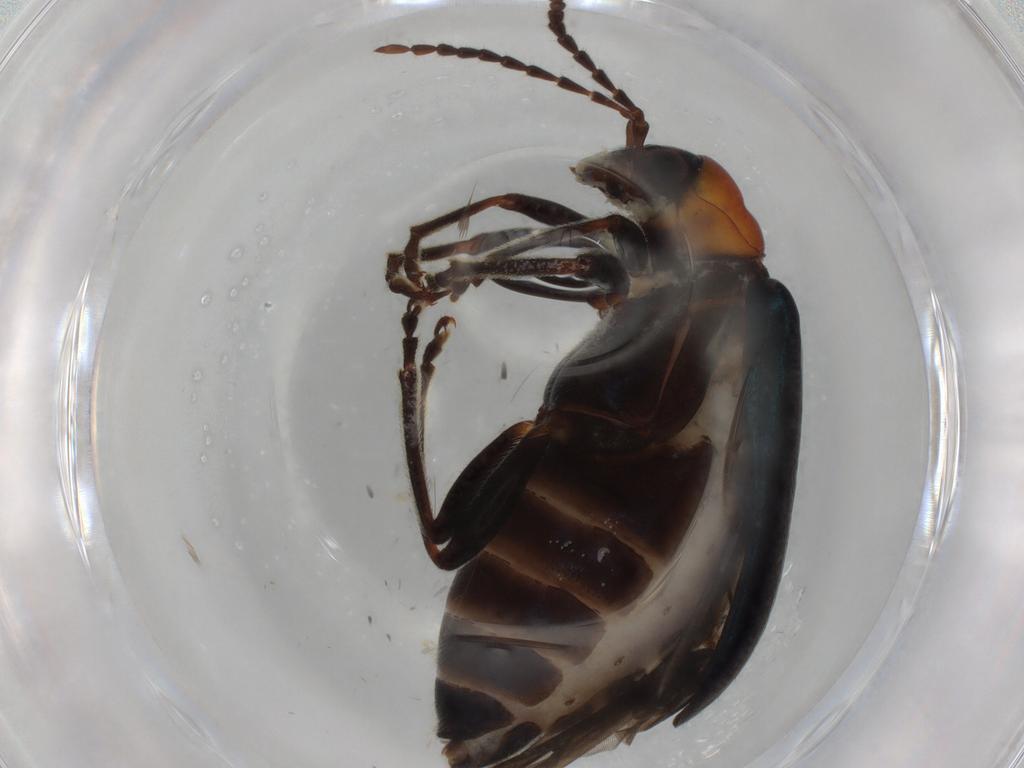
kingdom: Animalia
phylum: Arthropoda
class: Insecta
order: Coleoptera
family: Chrysomelidae
